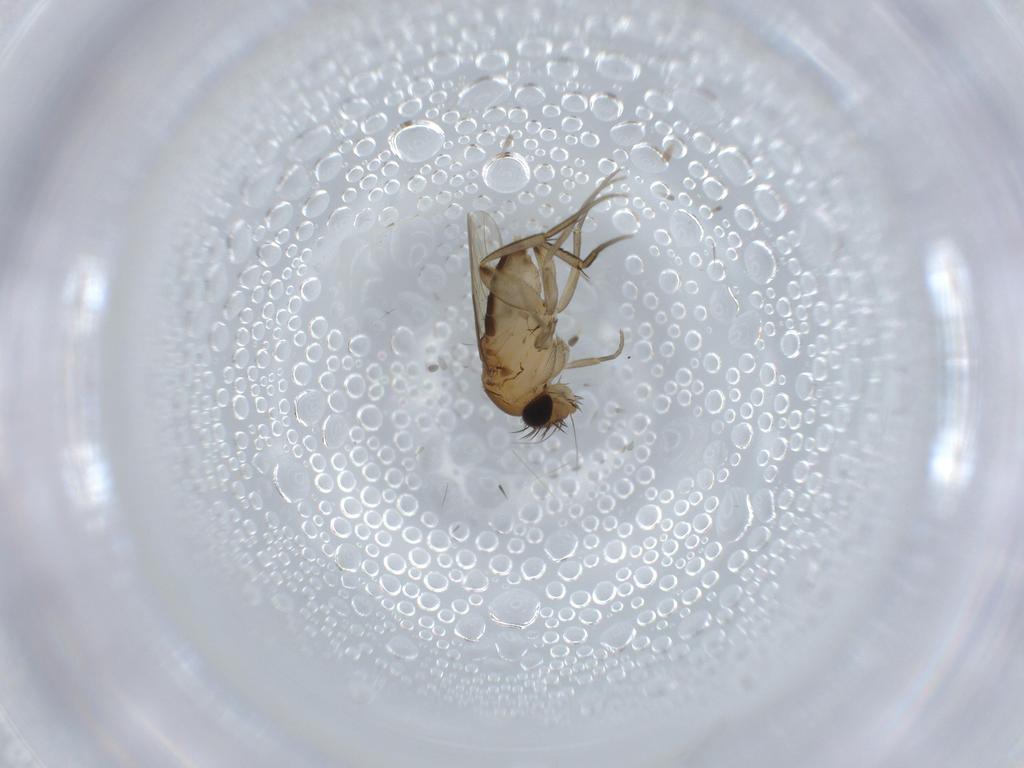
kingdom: Animalia
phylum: Arthropoda
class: Insecta
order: Diptera
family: Phoridae
